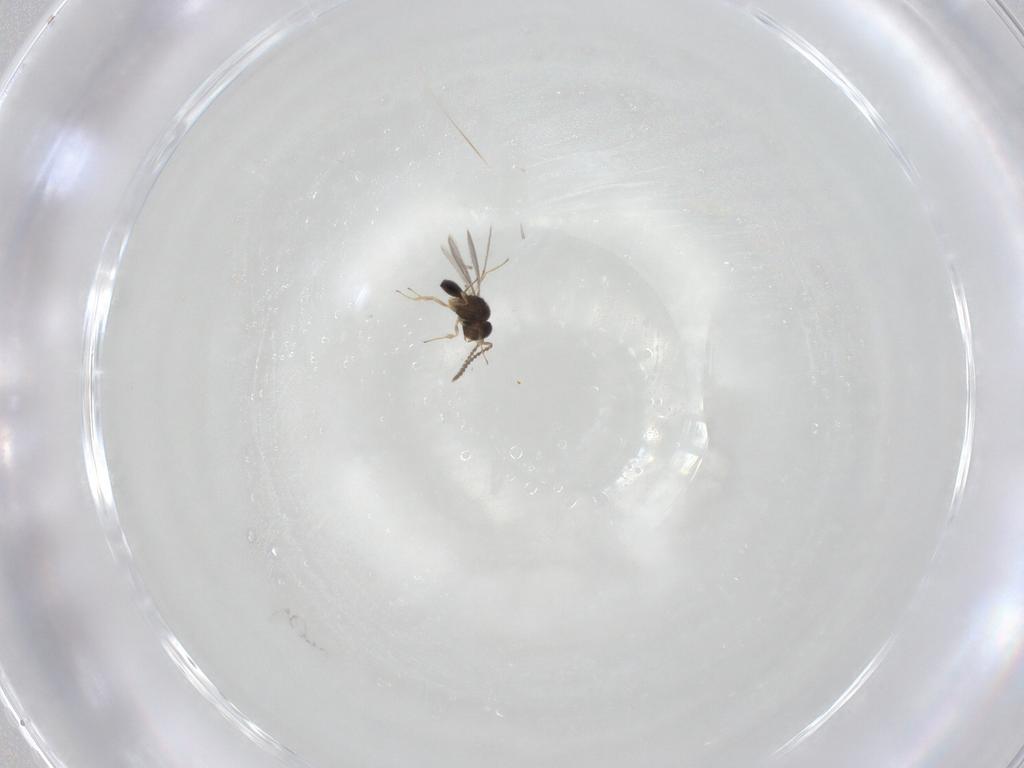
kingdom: Animalia
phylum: Arthropoda
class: Insecta
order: Hymenoptera
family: Scelionidae
